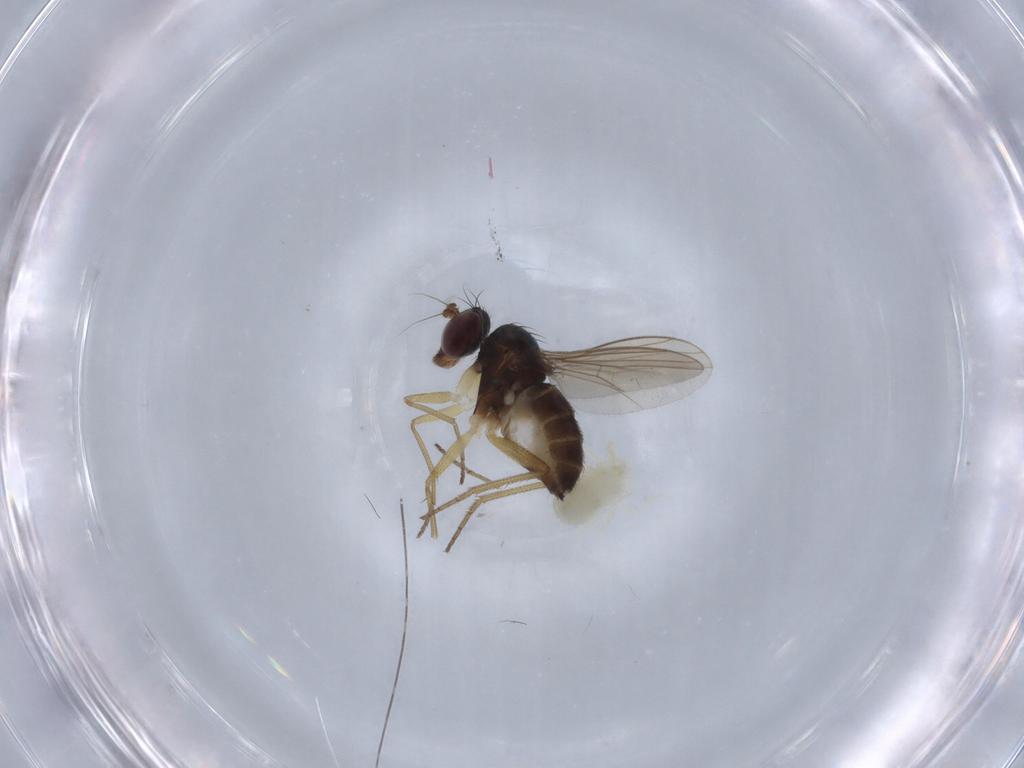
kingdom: Animalia
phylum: Arthropoda
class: Insecta
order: Diptera
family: Dolichopodidae
